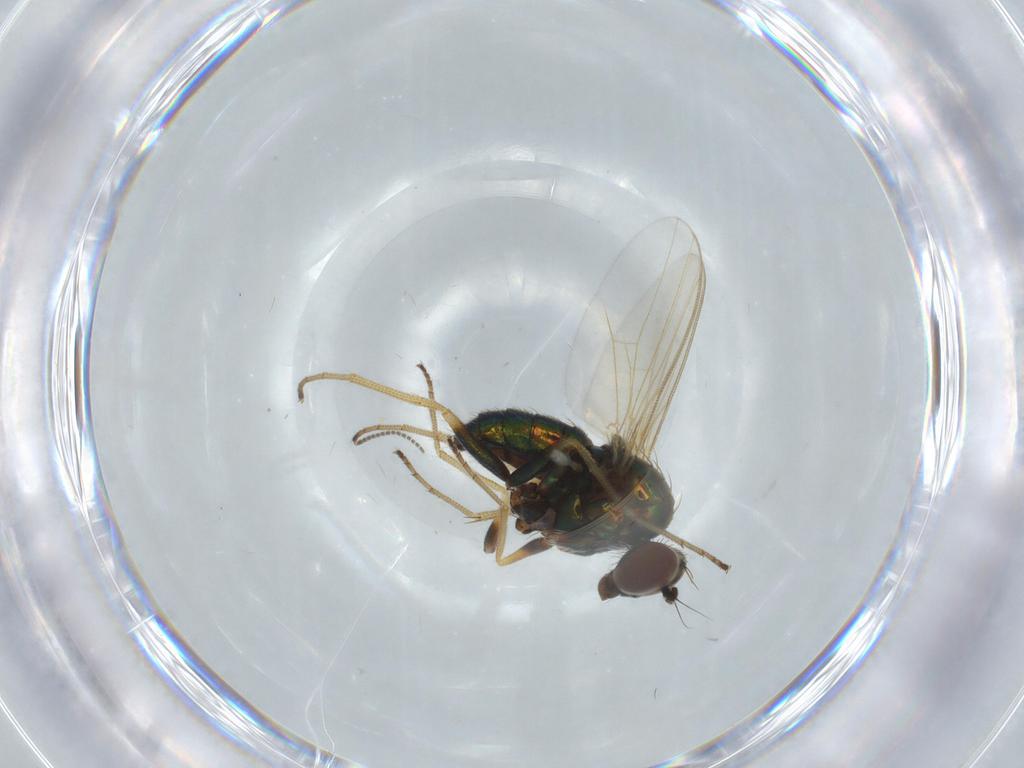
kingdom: Animalia
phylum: Arthropoda
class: Insecta
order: Diptera
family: Dolichopodidae
